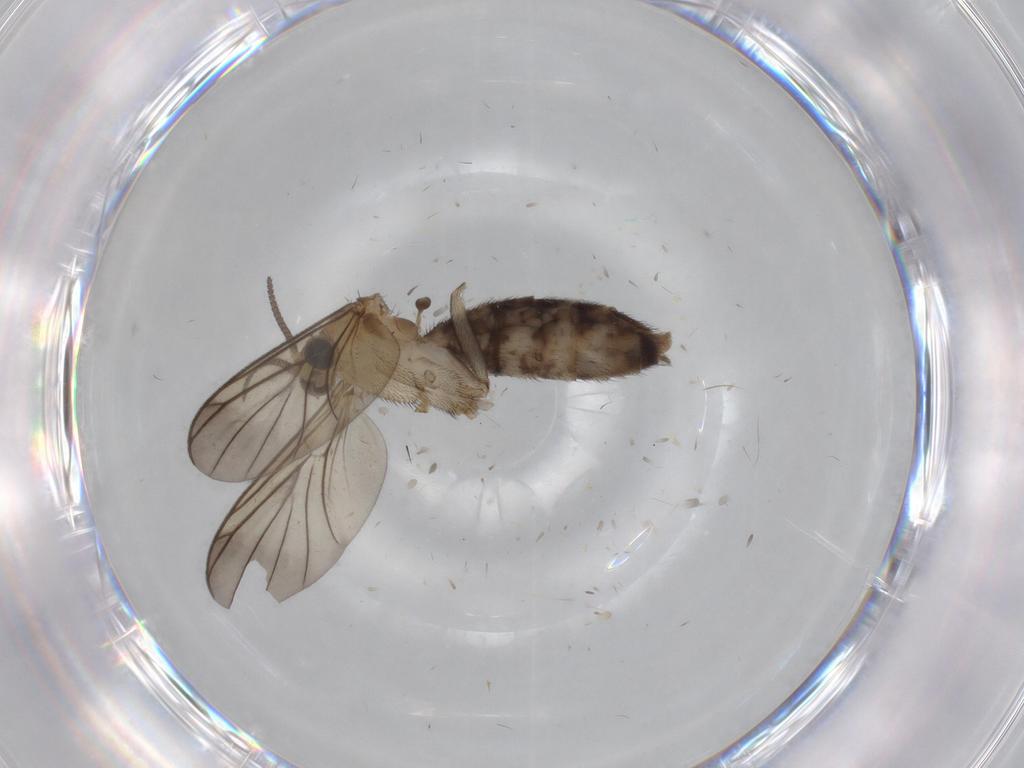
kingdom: Animalia
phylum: Arthropoda
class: Insecta
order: Diptera
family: Mycetophilidae
